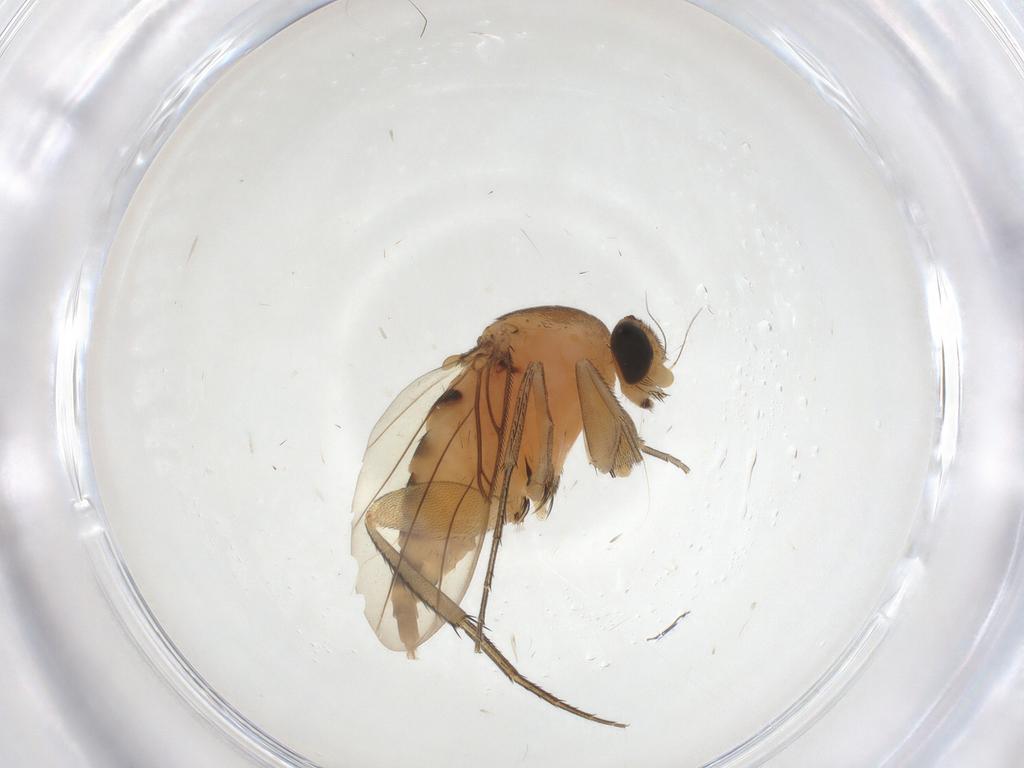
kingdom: Animalia
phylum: Arthropoda
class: Insecta
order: Diptera
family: Phoridae
